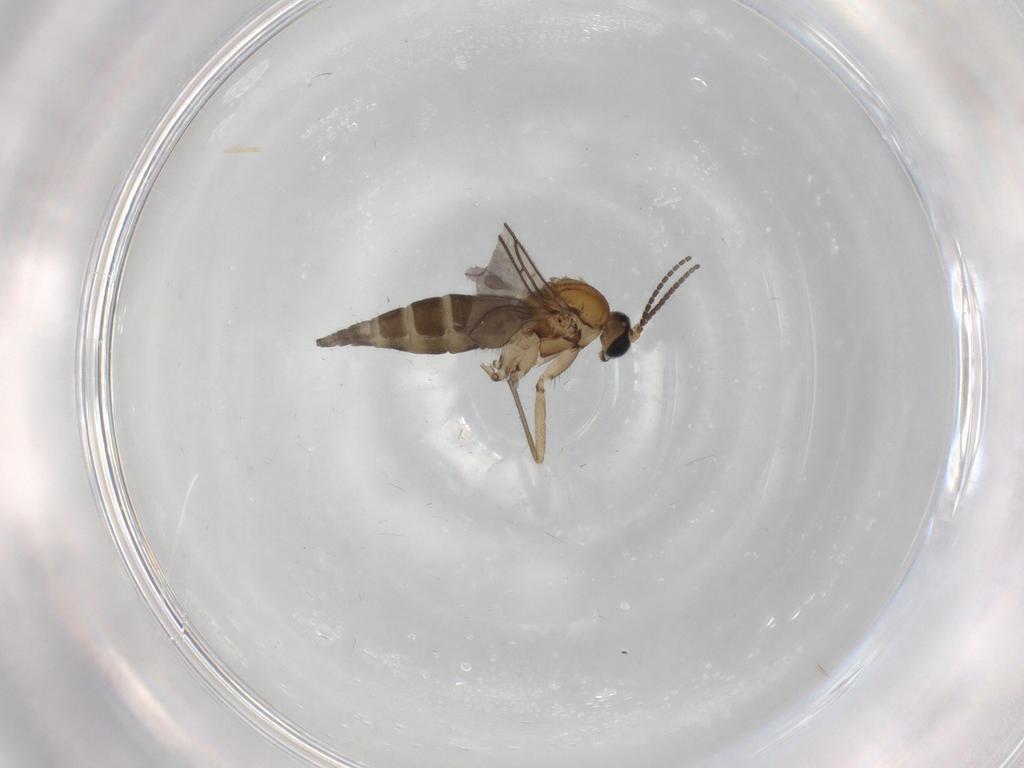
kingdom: Animalia
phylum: Arthropoda
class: Insecta
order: Diptera
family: Sciaridae
